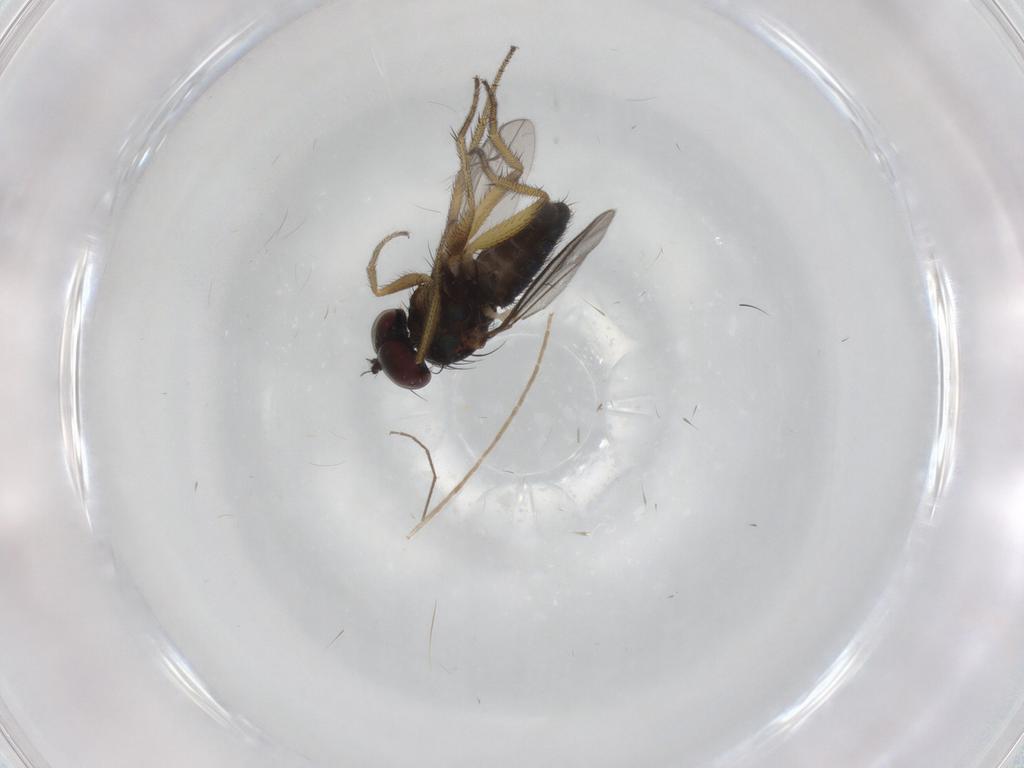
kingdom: Animalia
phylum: Arthropoda
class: Insecta
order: Diptera
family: Chironomidae
